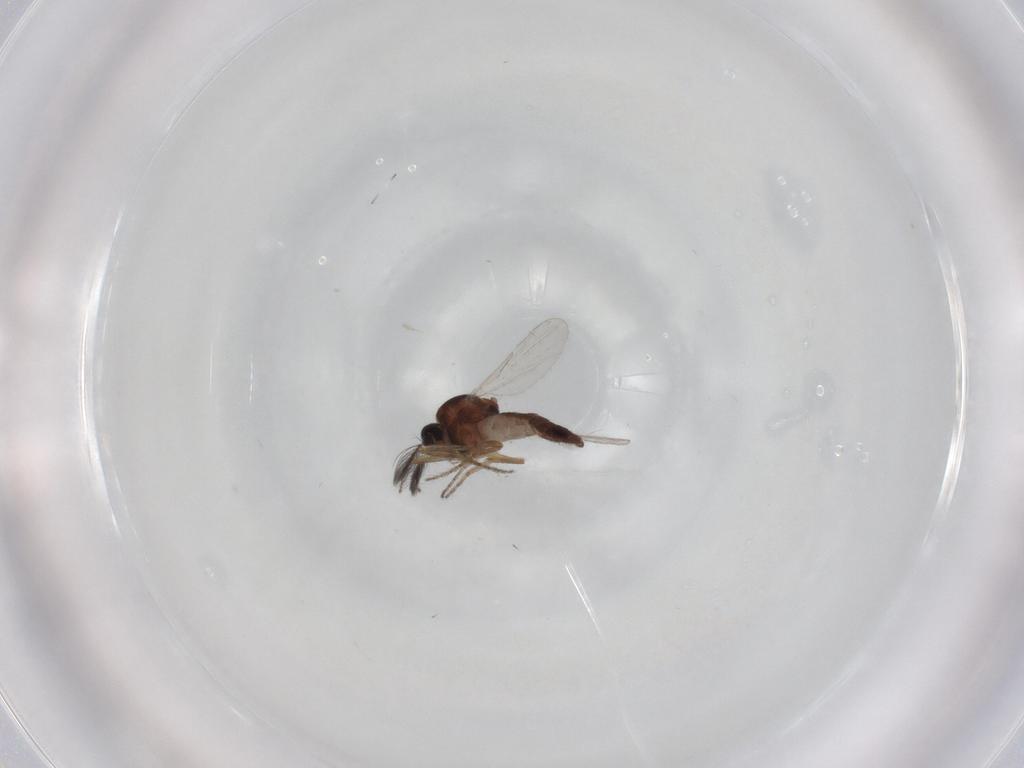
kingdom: Animalia
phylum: Arthropoda
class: Insecta
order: Diptera
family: Ceratopogonidae
